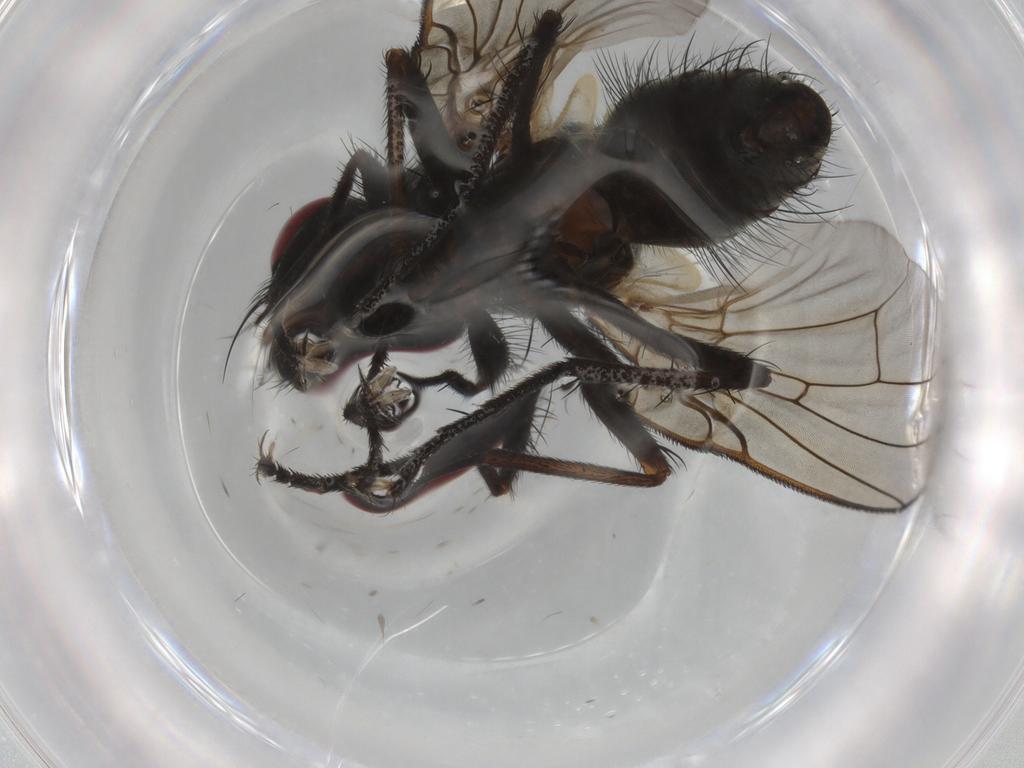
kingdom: Animalia
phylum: Arthropoda
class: Insecta
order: Diptera
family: Muscidae
